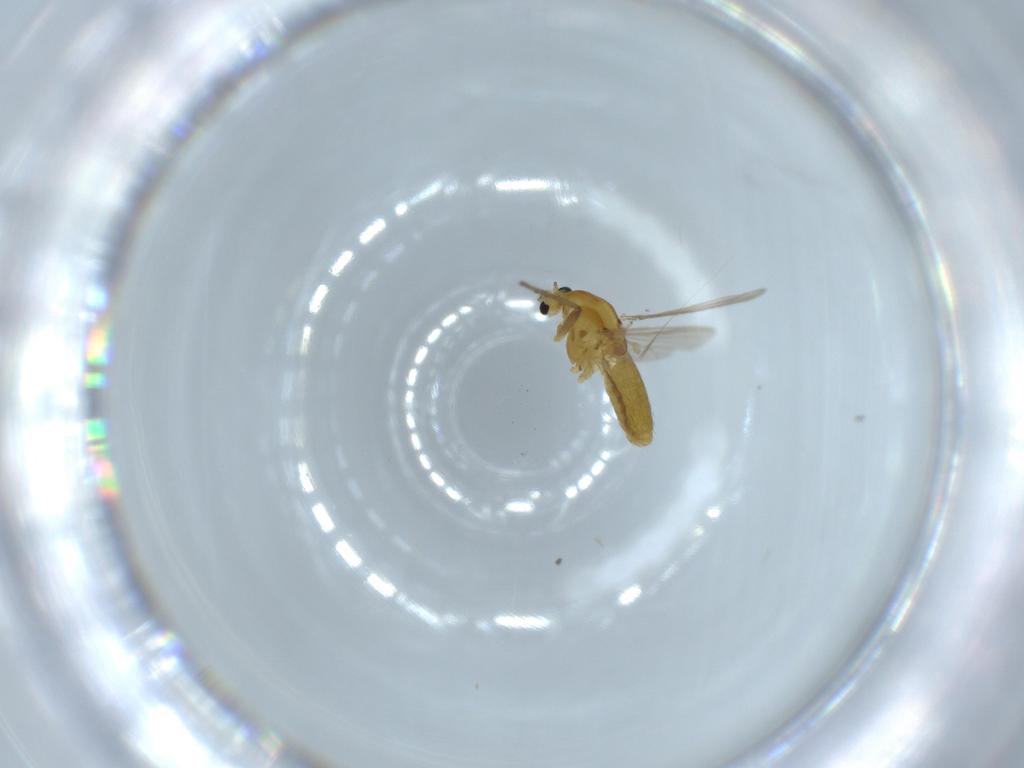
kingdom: Animalia
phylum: Arthropoda
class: Insecta
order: Diptera
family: Chironomidae
